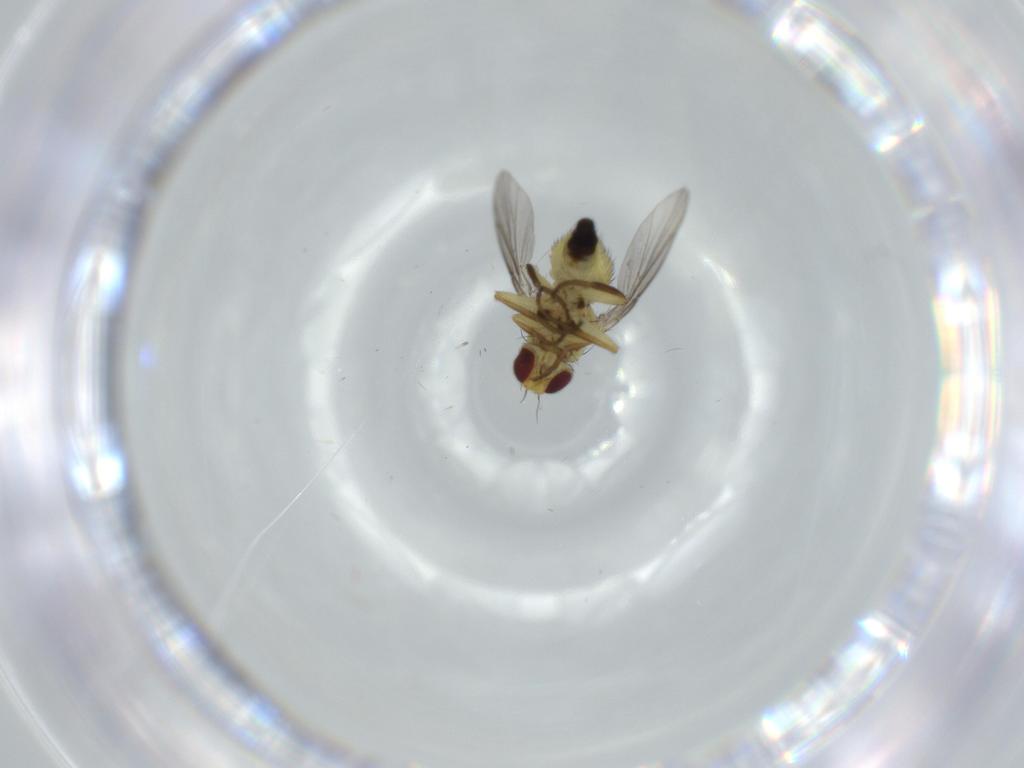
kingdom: Animalia
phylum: Arthropoda
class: Insecta
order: Diptera
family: Agromyzidae
